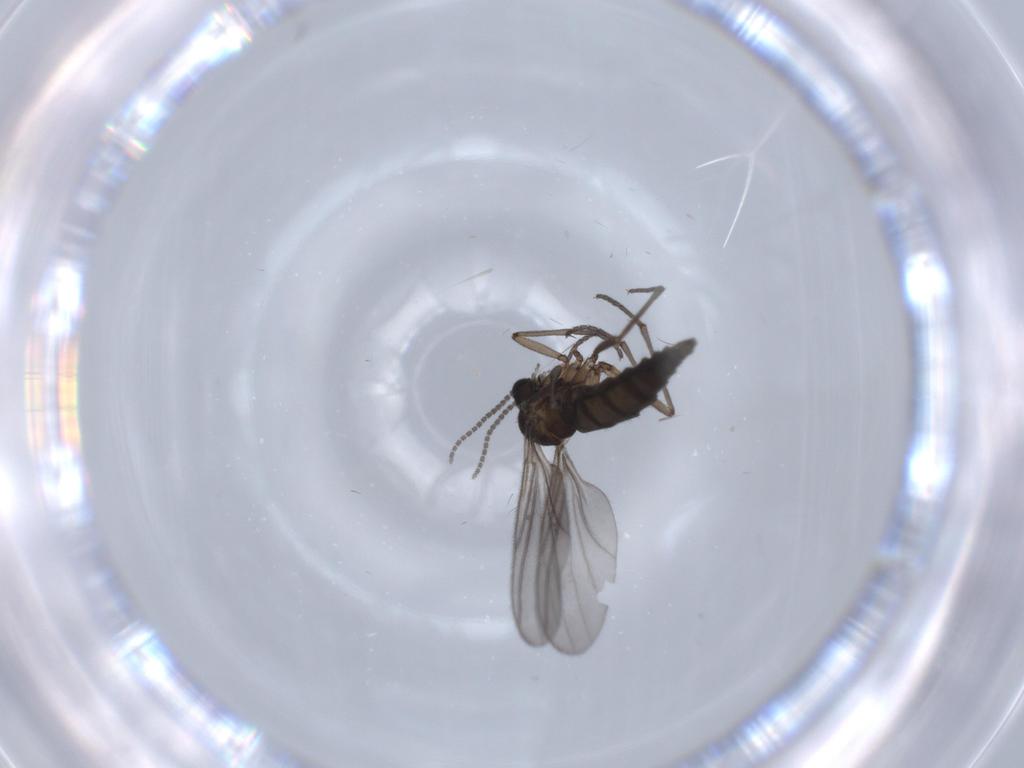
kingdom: Animalia
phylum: Arthropoda
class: Insecta
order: Diptera
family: Sciaridae
